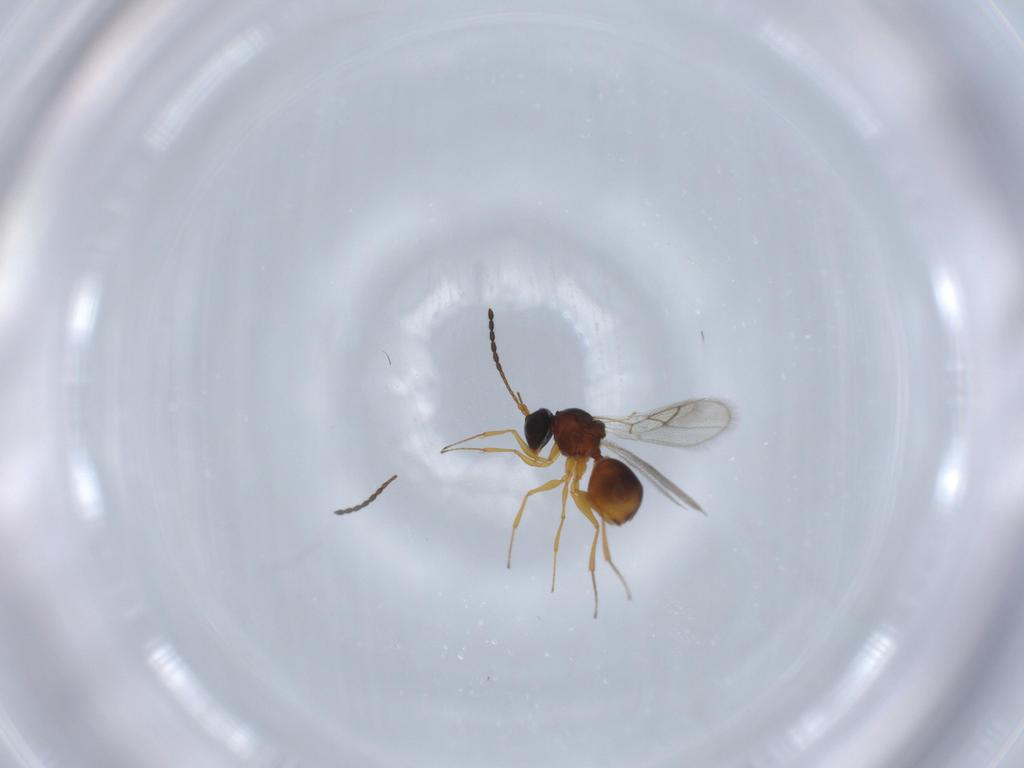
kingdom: Animalia
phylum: Arthropoda
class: Insecta
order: Hymenoptera
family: Figitidae
